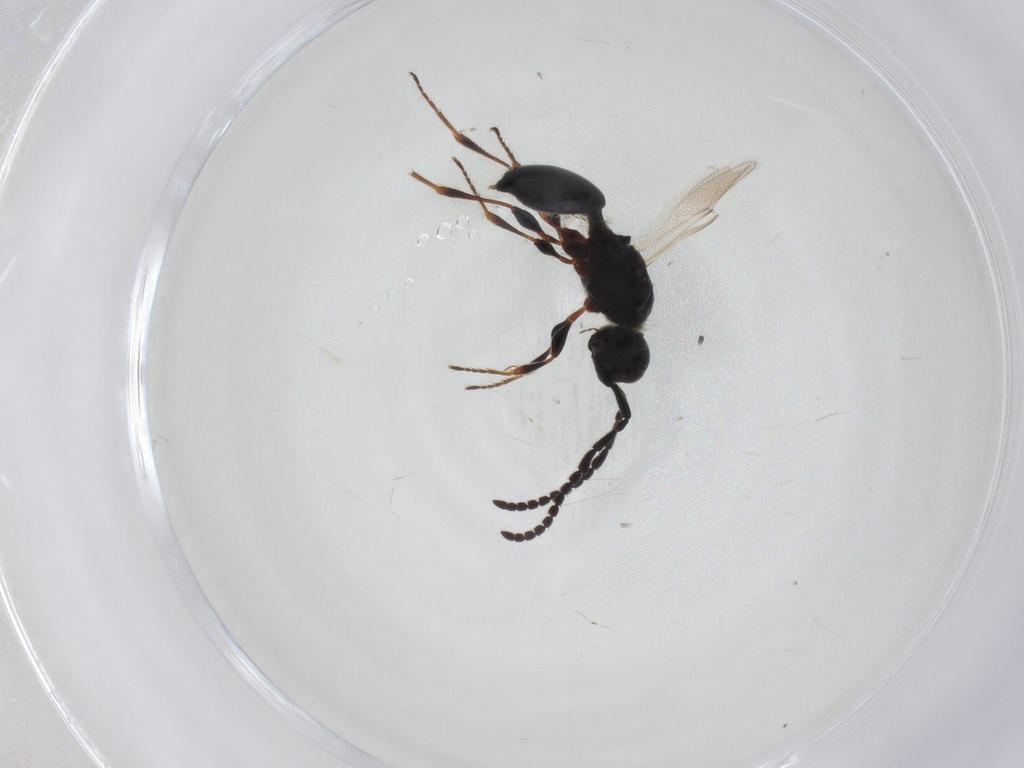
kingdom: Animalia
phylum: Arthropoda
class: Insecta
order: Hymenoptera
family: Diapriidae
